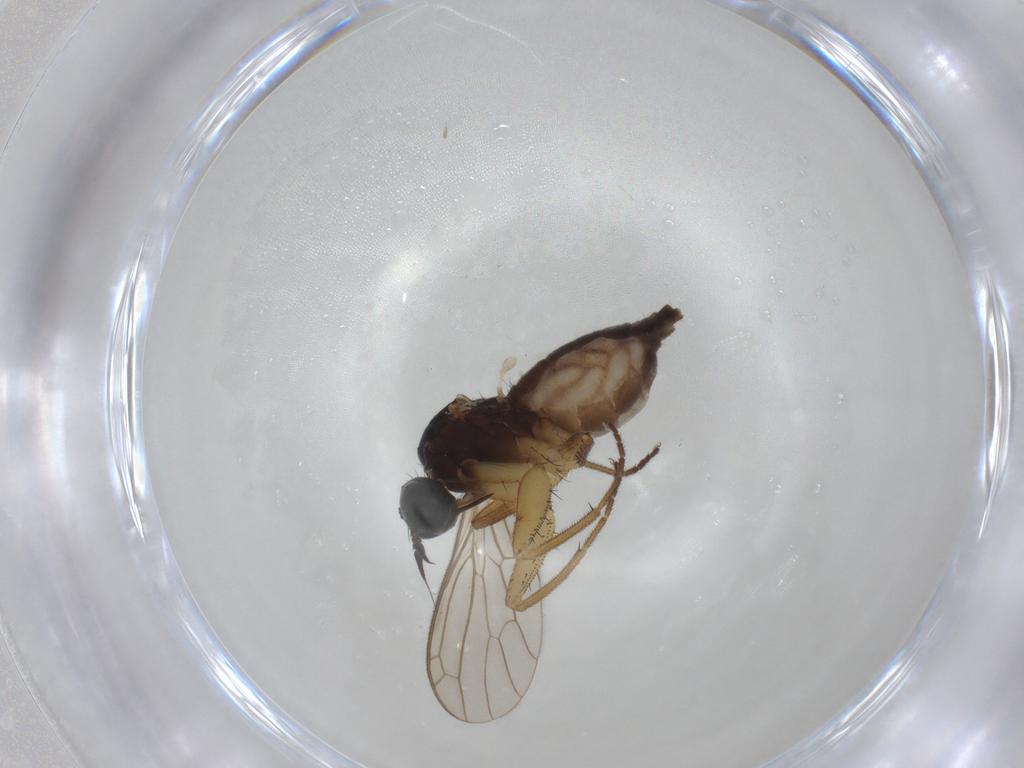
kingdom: Animalia
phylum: Arthropoda
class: Insecta
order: Diptera
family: Empididae
